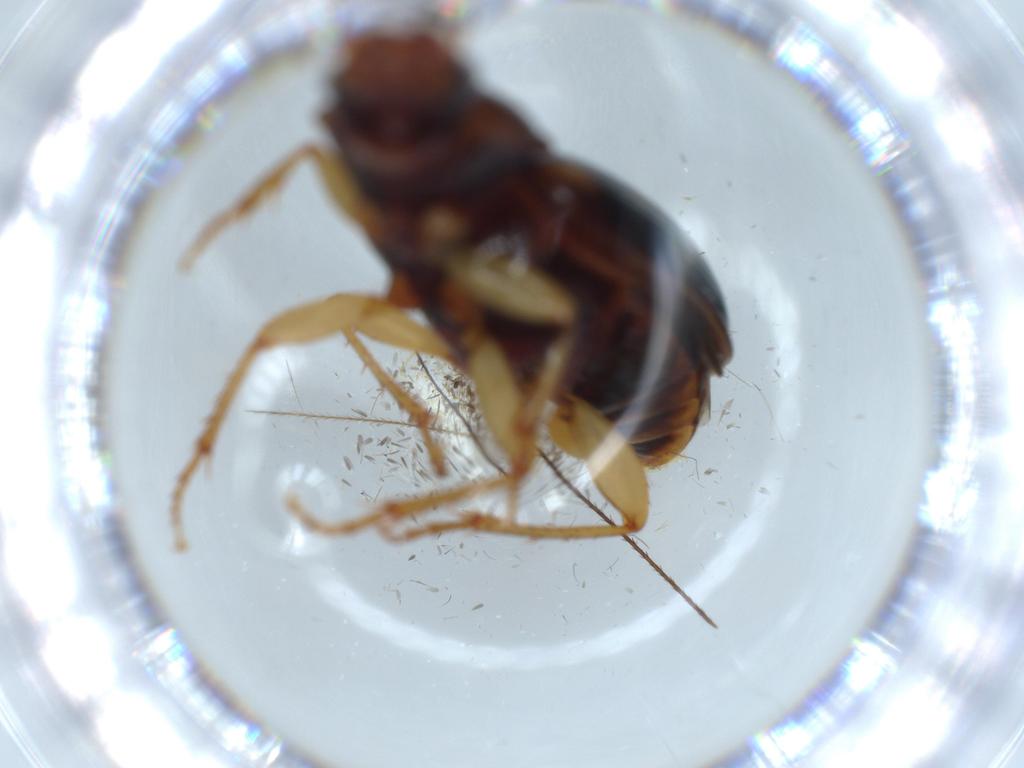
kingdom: Animalia
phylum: Arthropoda
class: Insecta
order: Coleoptera
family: Carabidae
